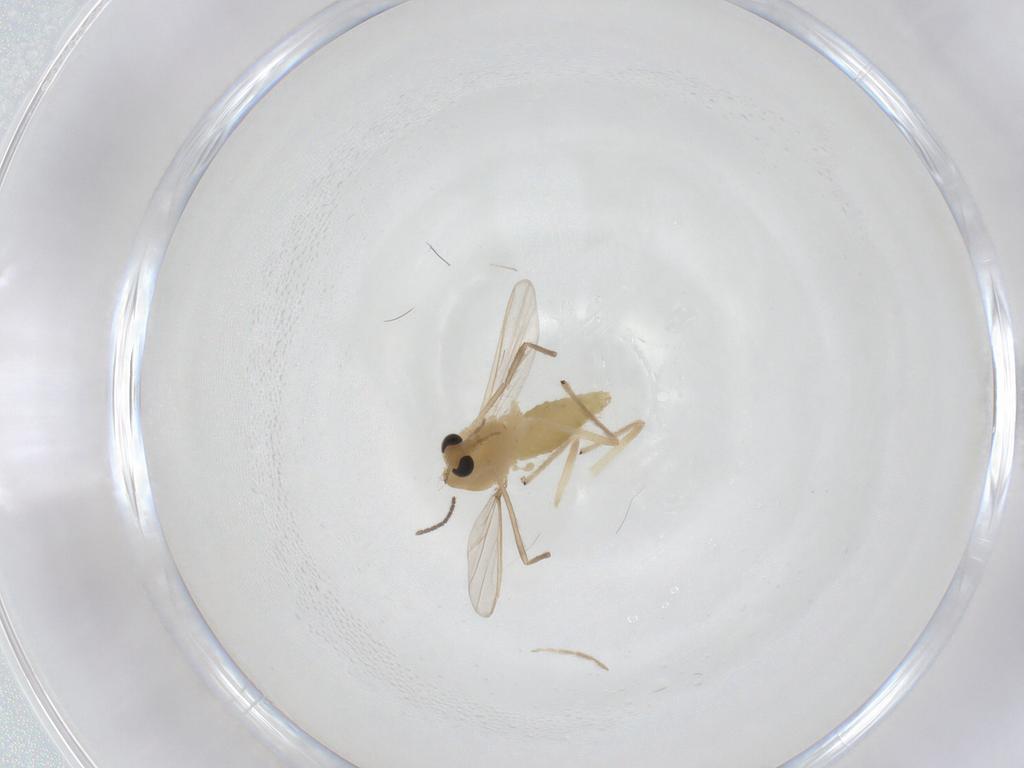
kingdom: Animalia
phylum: Arthropoda
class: Insecta
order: Diptera
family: Chironomidae
